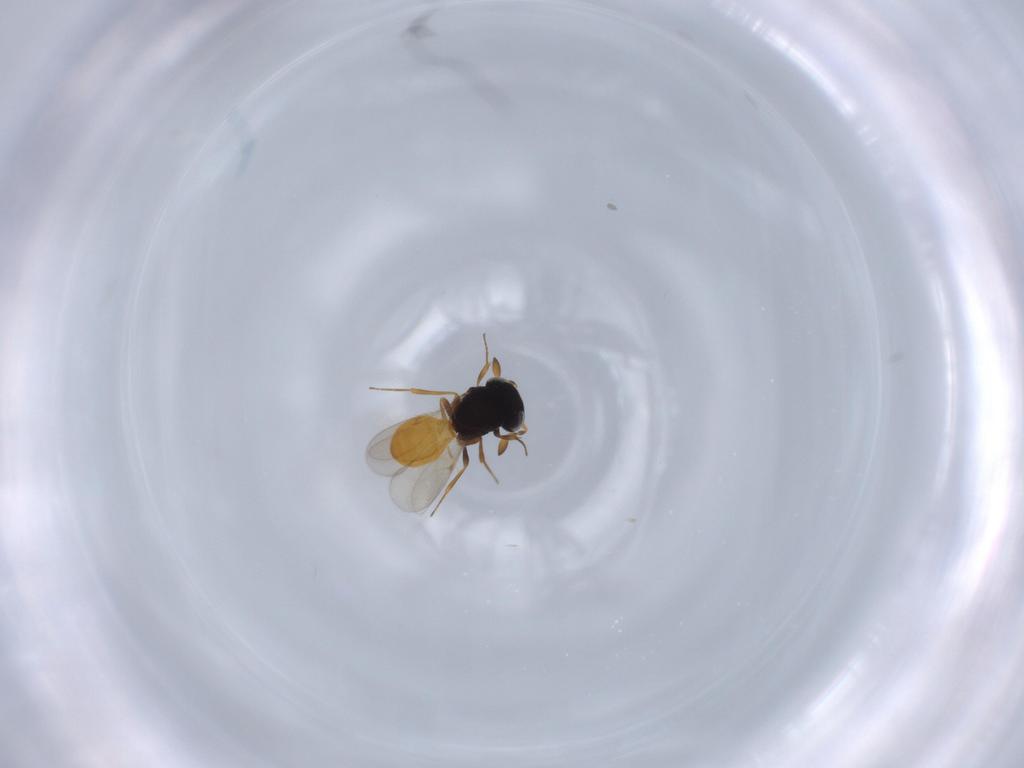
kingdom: Animalia
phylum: Arthropoda
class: Insecta
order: Hymenoptera
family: Scelionidae
